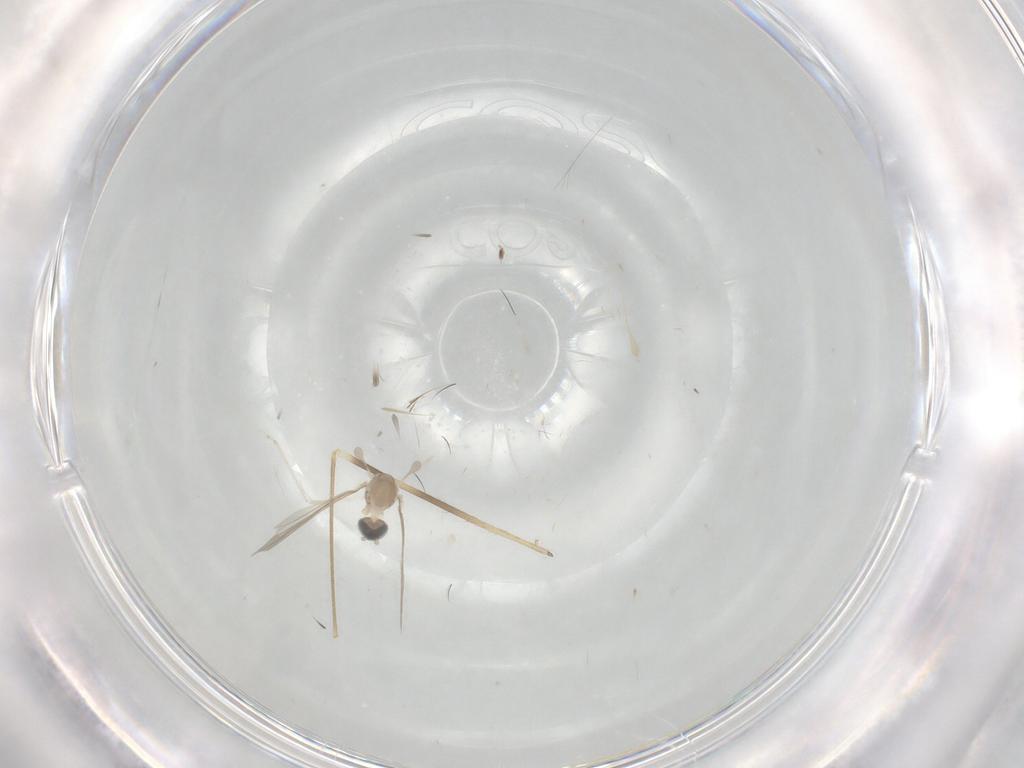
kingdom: Animalia
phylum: Arthropoda
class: Insecta
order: Diptera
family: Cecidomyiidae
